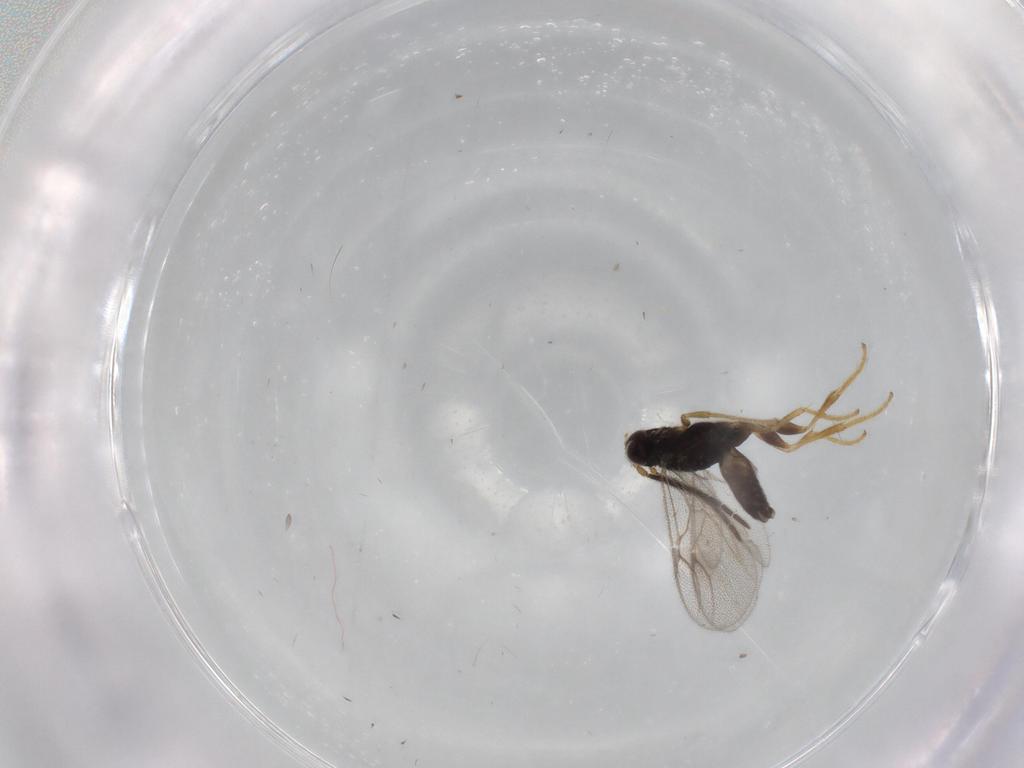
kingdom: Animalia
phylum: Arthropoda
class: Insecta
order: Hymenoptera
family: Dryinidae
